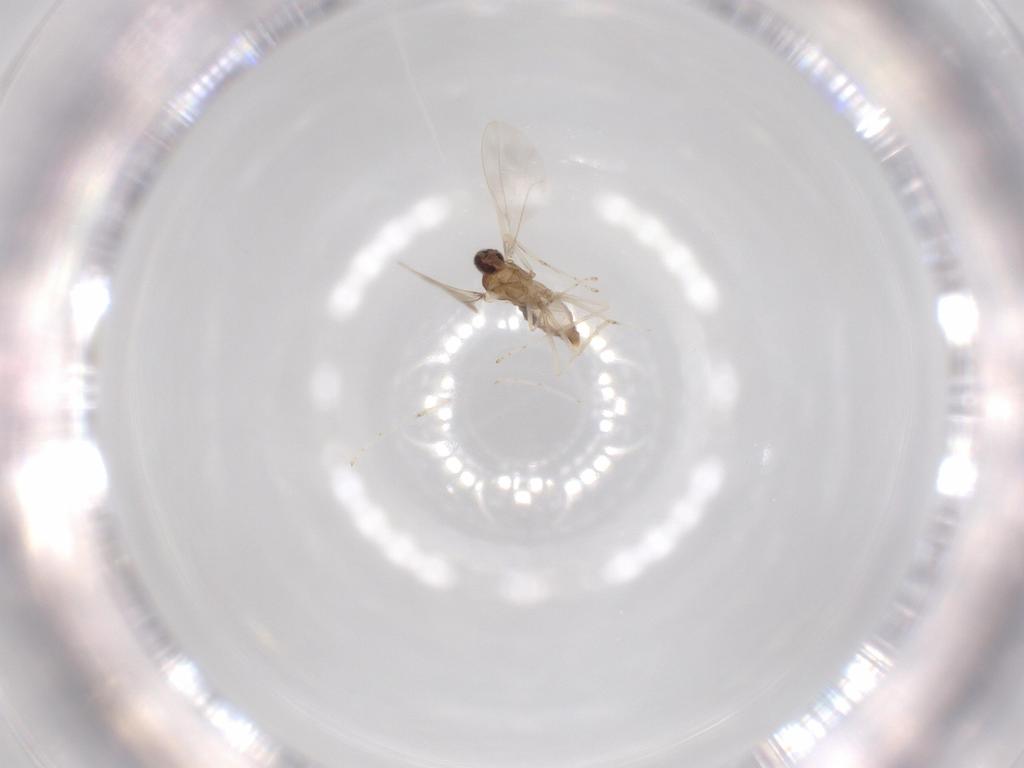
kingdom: Animalia
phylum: Arthropoda
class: Insecta
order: Diptera
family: Cecidomyiidae
